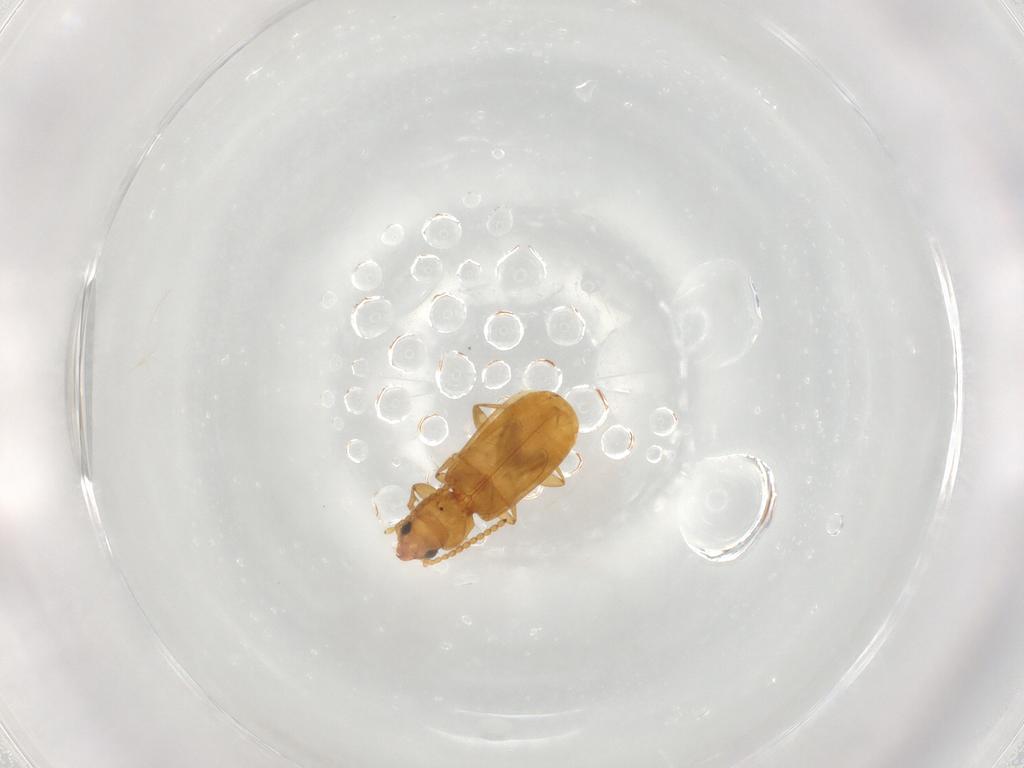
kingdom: Animalia
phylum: Arthropoda
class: Insecta
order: Coleoptera
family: Carabidae
